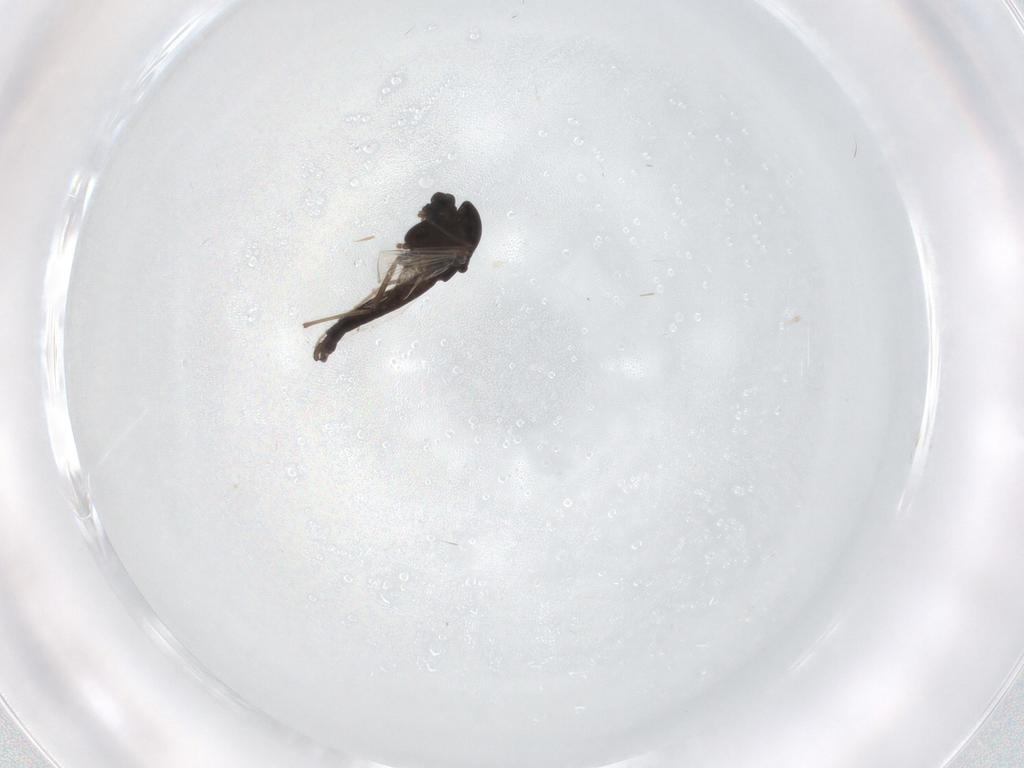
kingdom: Animalia
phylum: Arthropoda
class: Insecta
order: Diptera
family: Sciaridae
